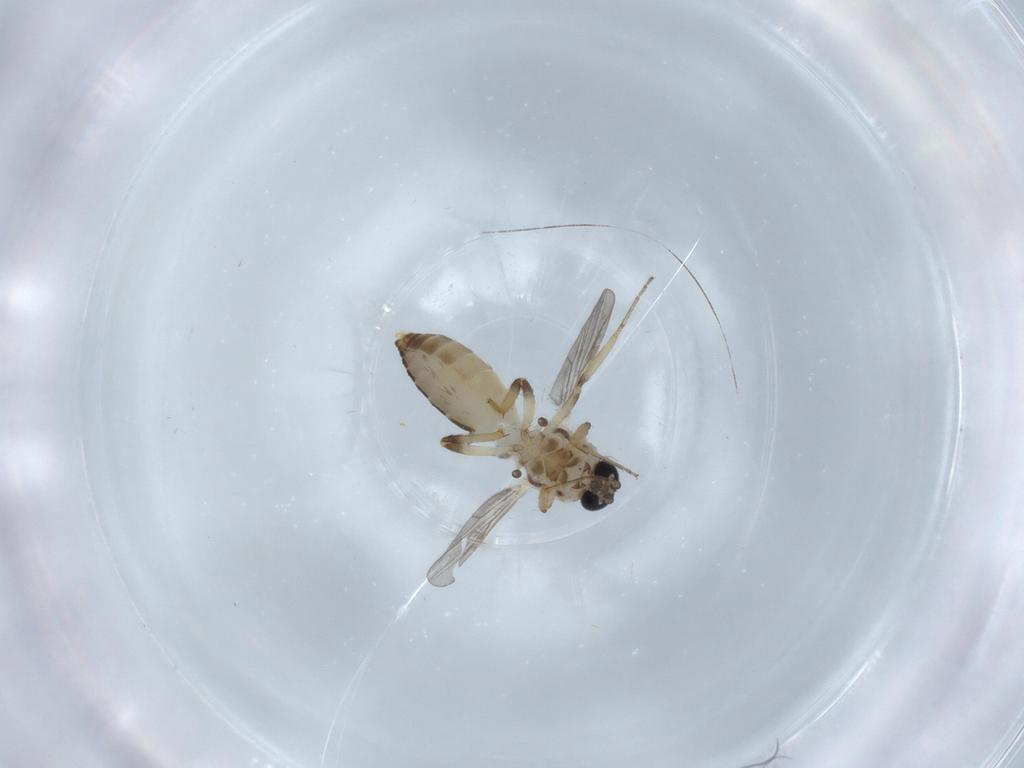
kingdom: Animalia
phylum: Arthropoda
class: Insecta
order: Diptera
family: Ceratopogonidae
